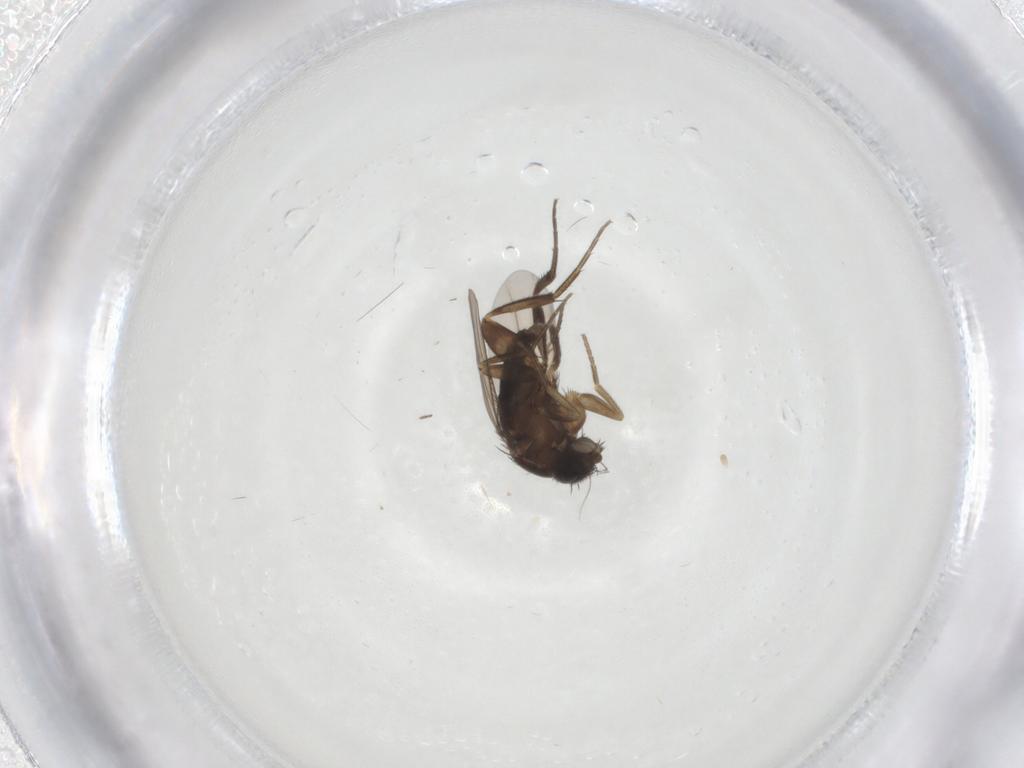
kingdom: Animalia
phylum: Arthropoda
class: Insecta
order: Diptera
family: Phoridae
